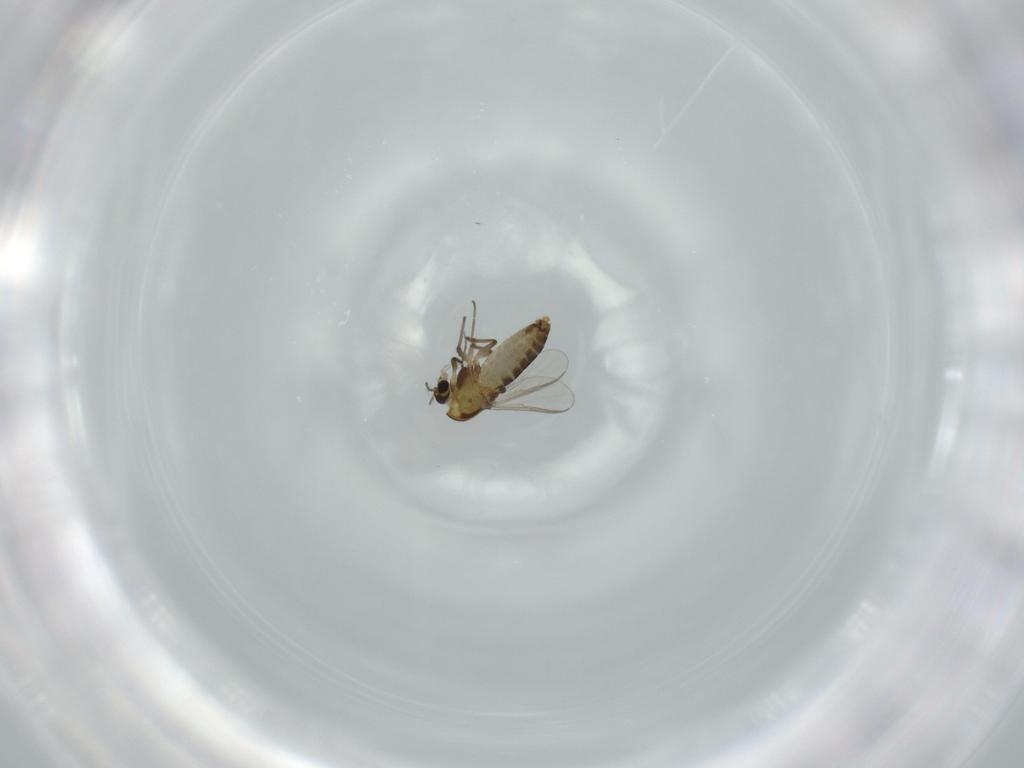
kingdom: Animalia
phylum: Arthropoda
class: Insecta
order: Diptera
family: Chironomidae
